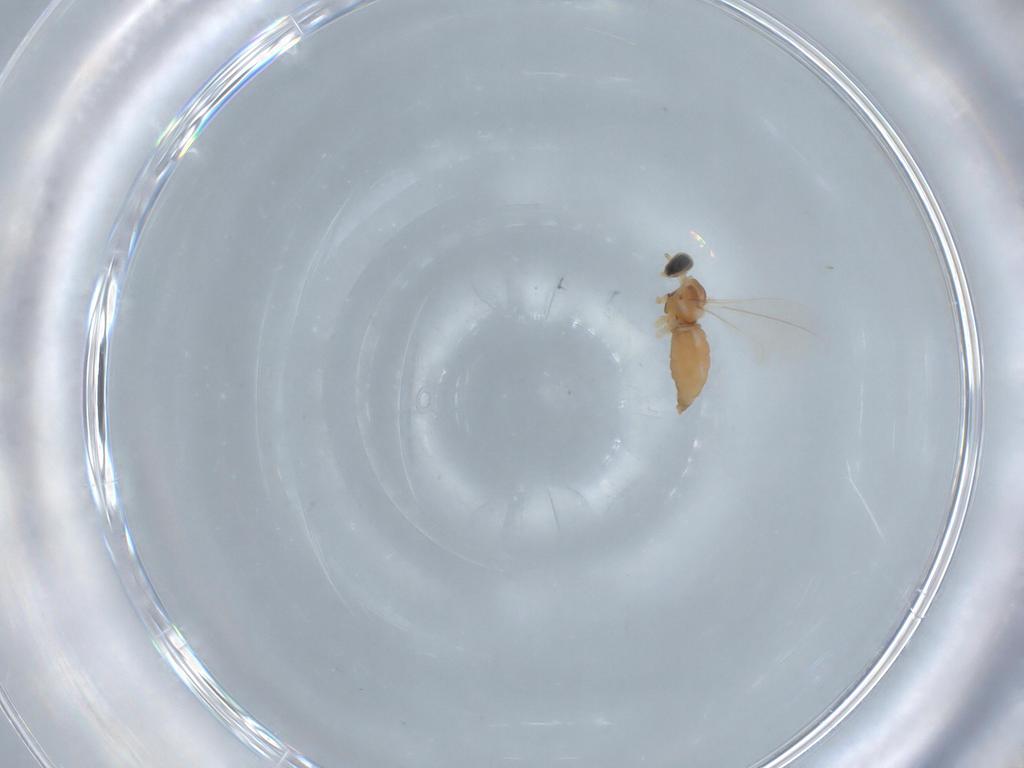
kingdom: Animalia
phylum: Arthropoda
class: Insecta
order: Diptera
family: Cecidomyiidae
